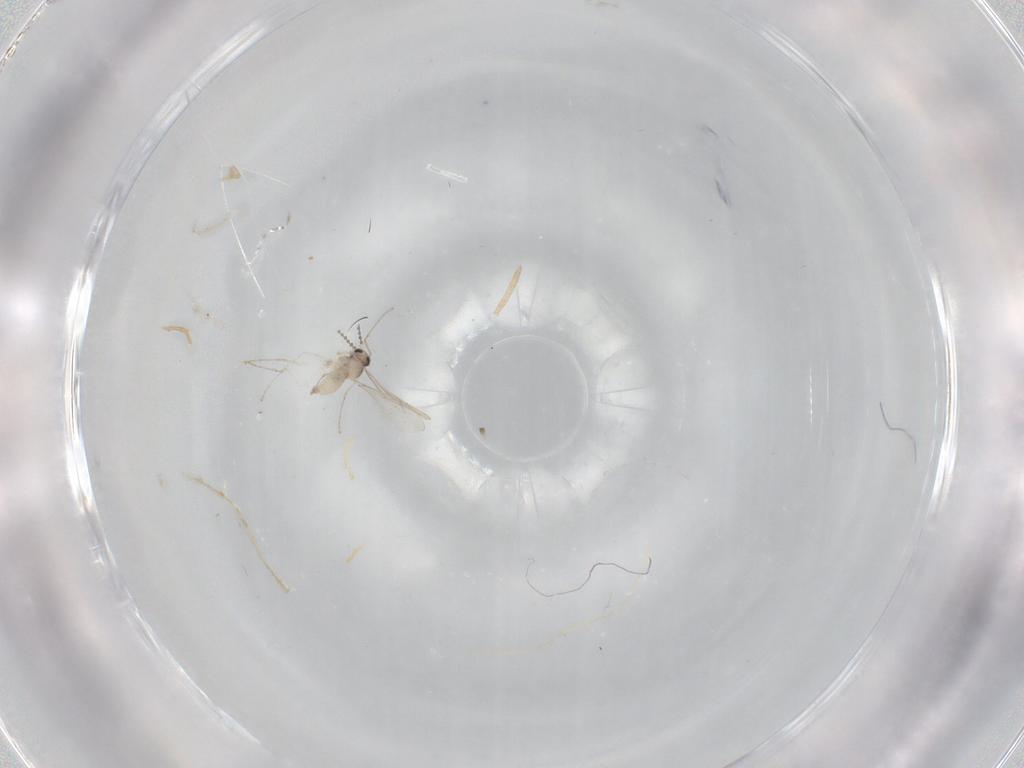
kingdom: Animalia
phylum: Arthropoda
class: Insecta
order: Diptera
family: Cecidomyiidae
